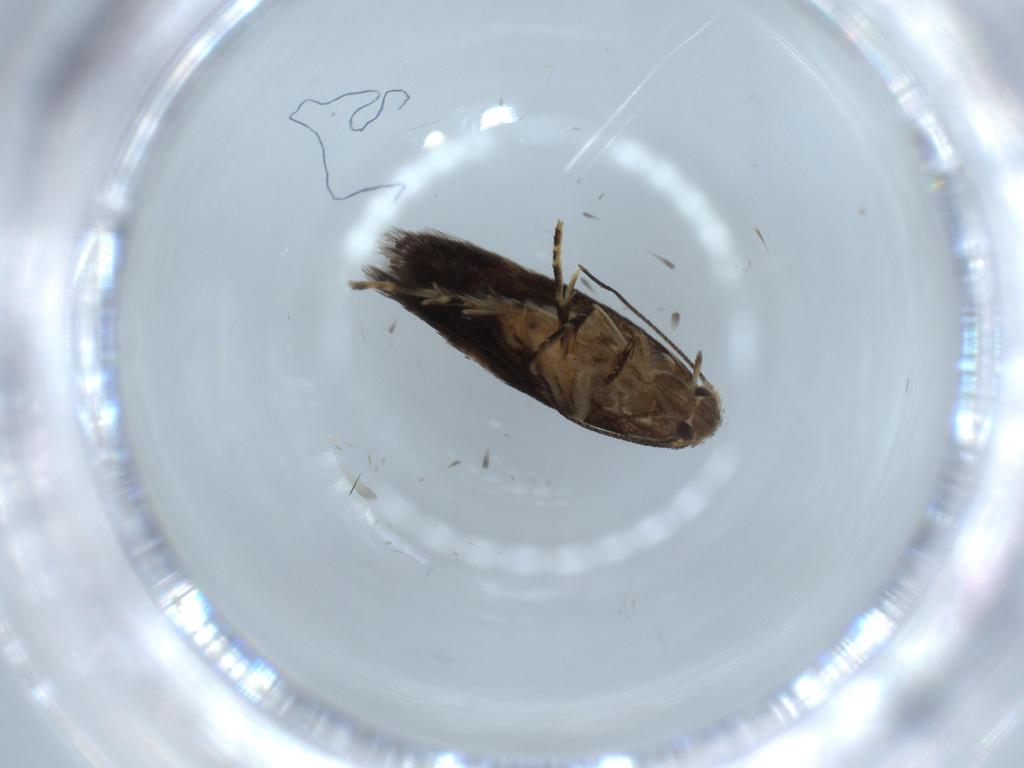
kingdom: Animalia
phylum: Arthropoda
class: Insecta
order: Lepidoptera
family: Gelechiidae
